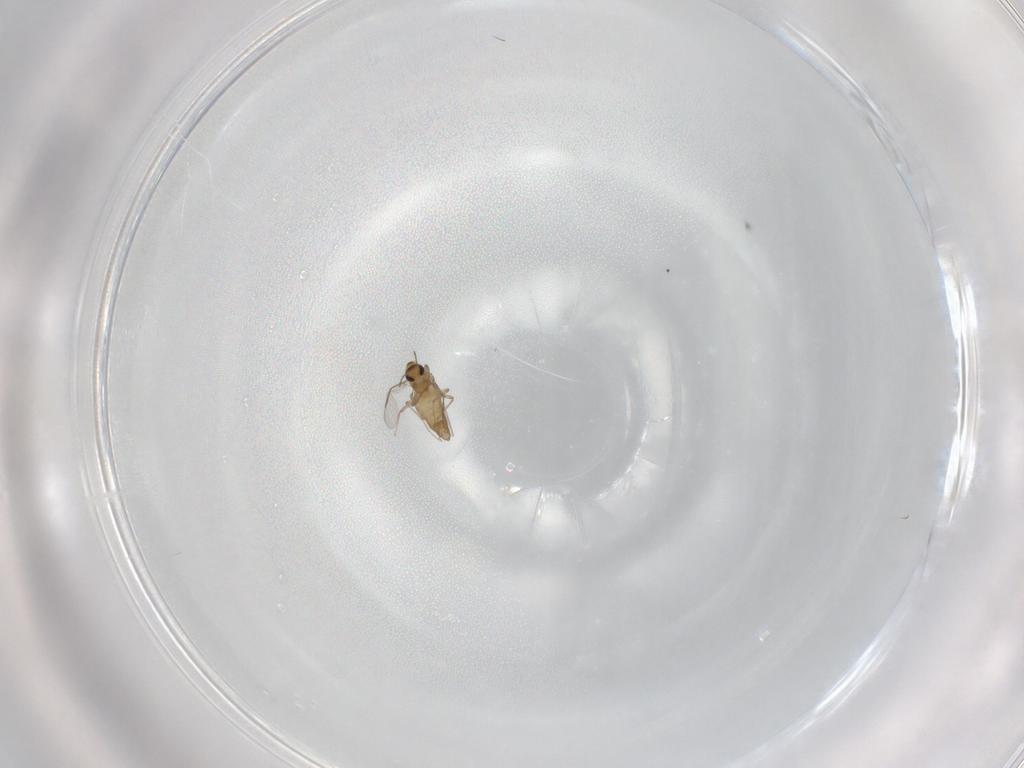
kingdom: Animalia
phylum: Arthropoda
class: Insecta
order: Diptera
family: Chironomidae
